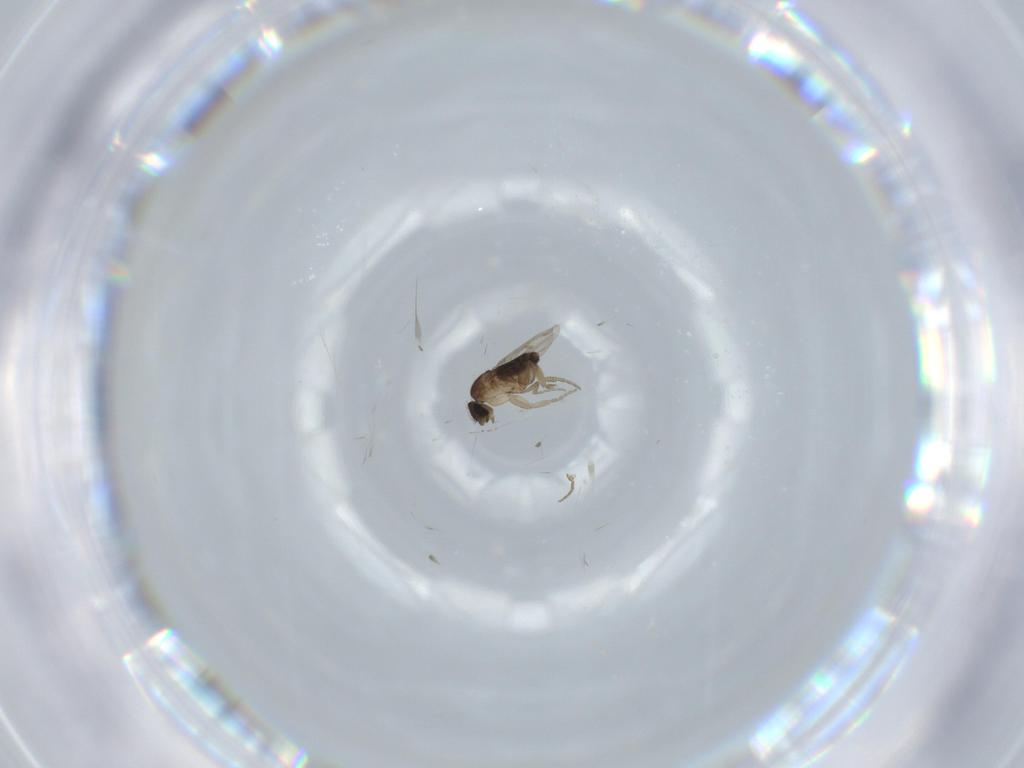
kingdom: Animalia
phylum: Arthropoda
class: Insecta
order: Diptera
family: Phoridae
